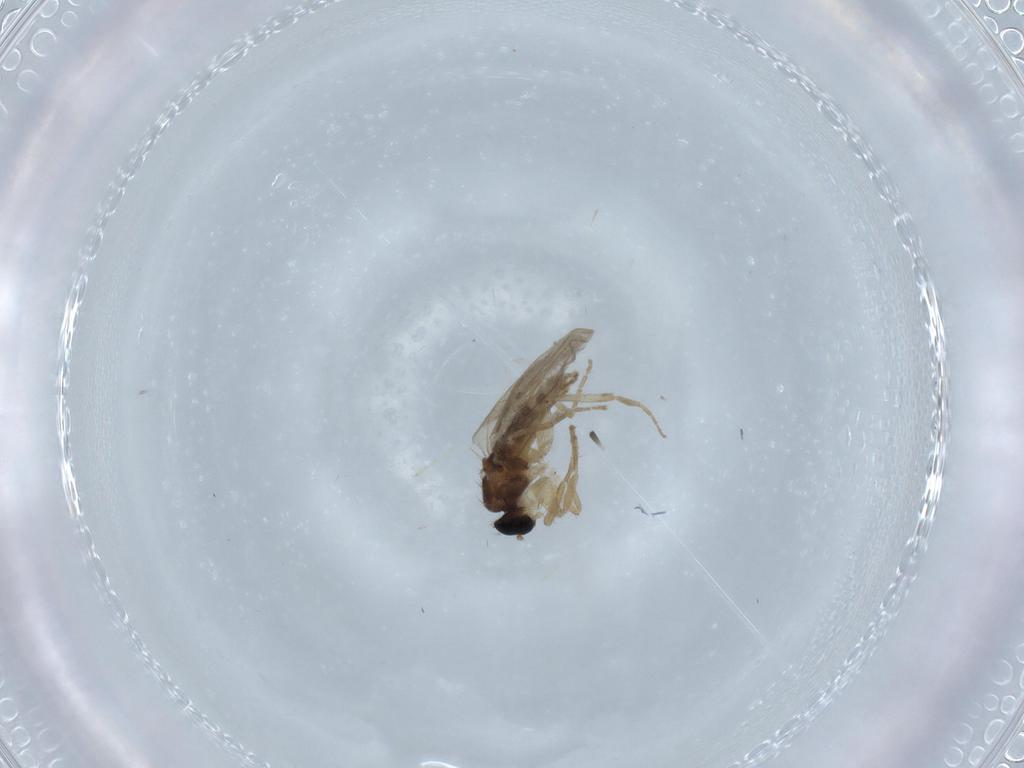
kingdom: Animalia
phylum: Arthropoda
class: Insecta
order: Diptera
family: Hybotidae
